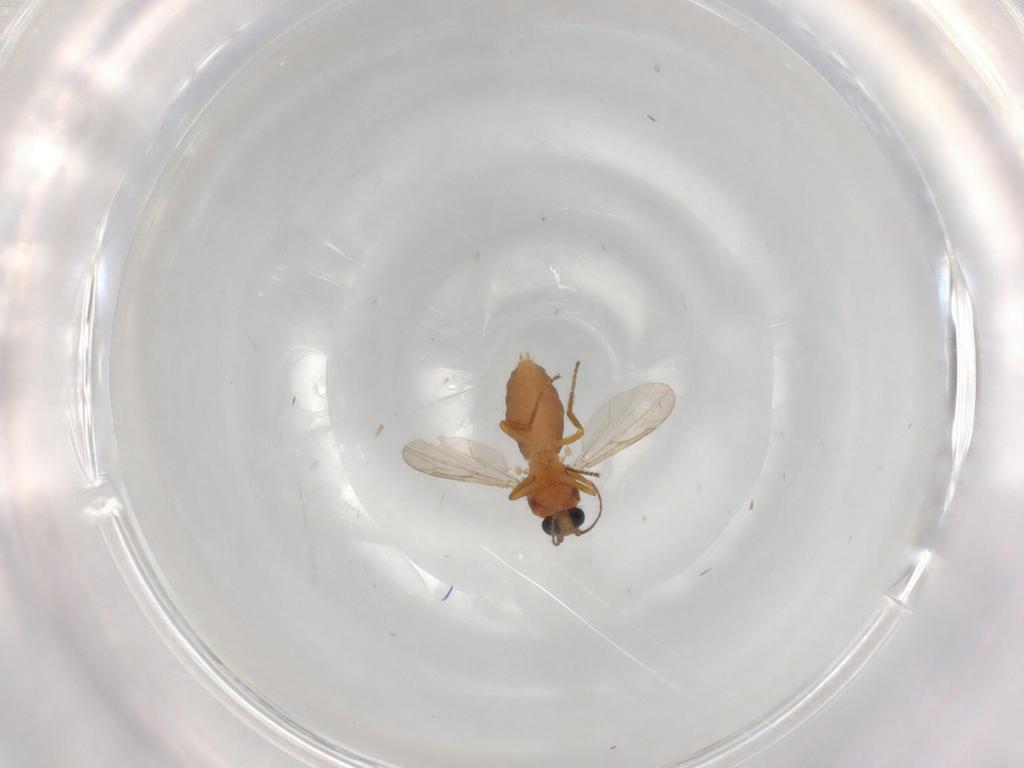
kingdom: Animalia
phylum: Arthropoda
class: Insecta
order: Diptera
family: Ceratopogonidae
